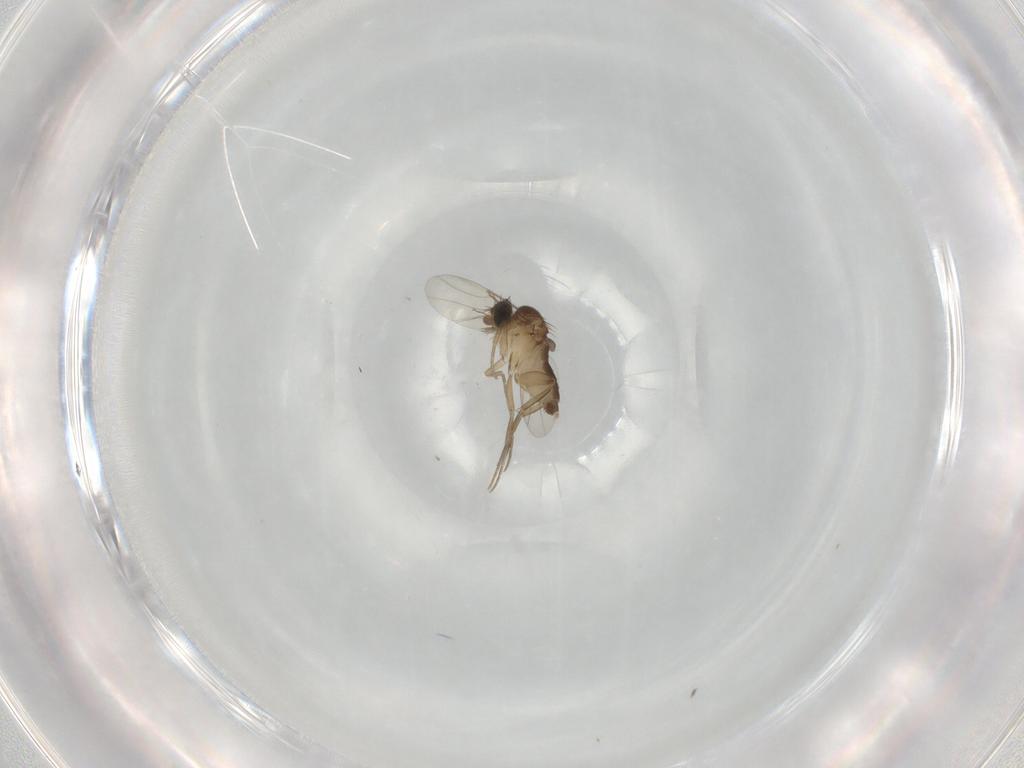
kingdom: Animalia
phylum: Arthropoda
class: Insecta
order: Diptera
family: Phoridae
